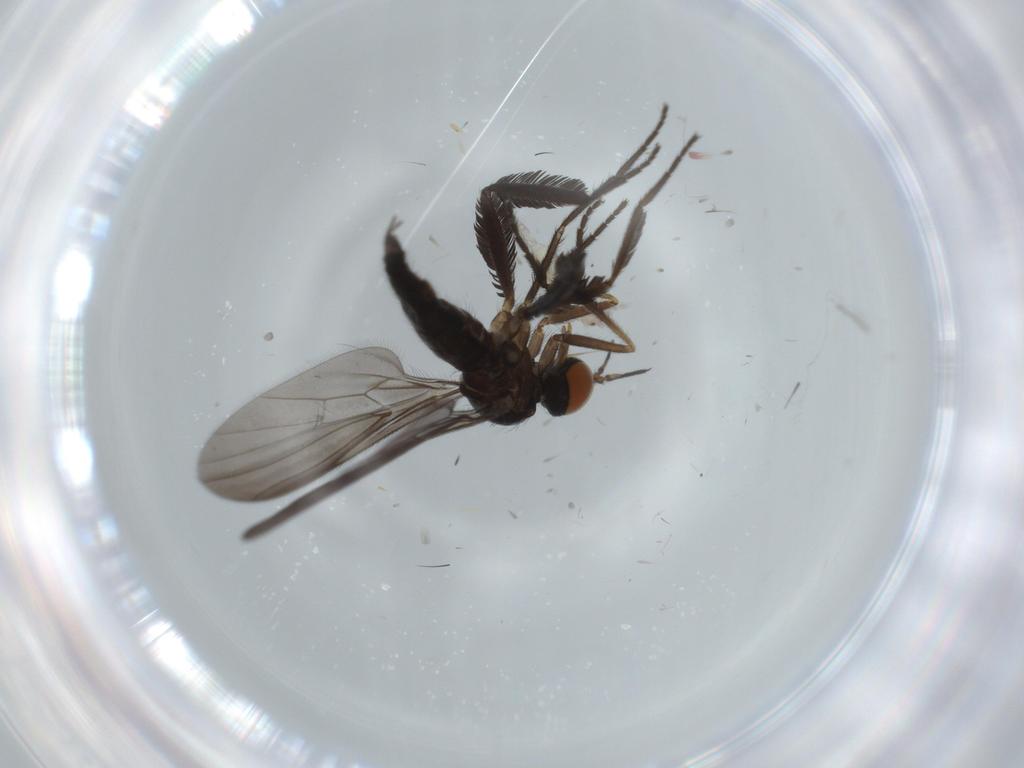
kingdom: Animalia
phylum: Arthropoda
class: Insecta
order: Diptera
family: Empididae
